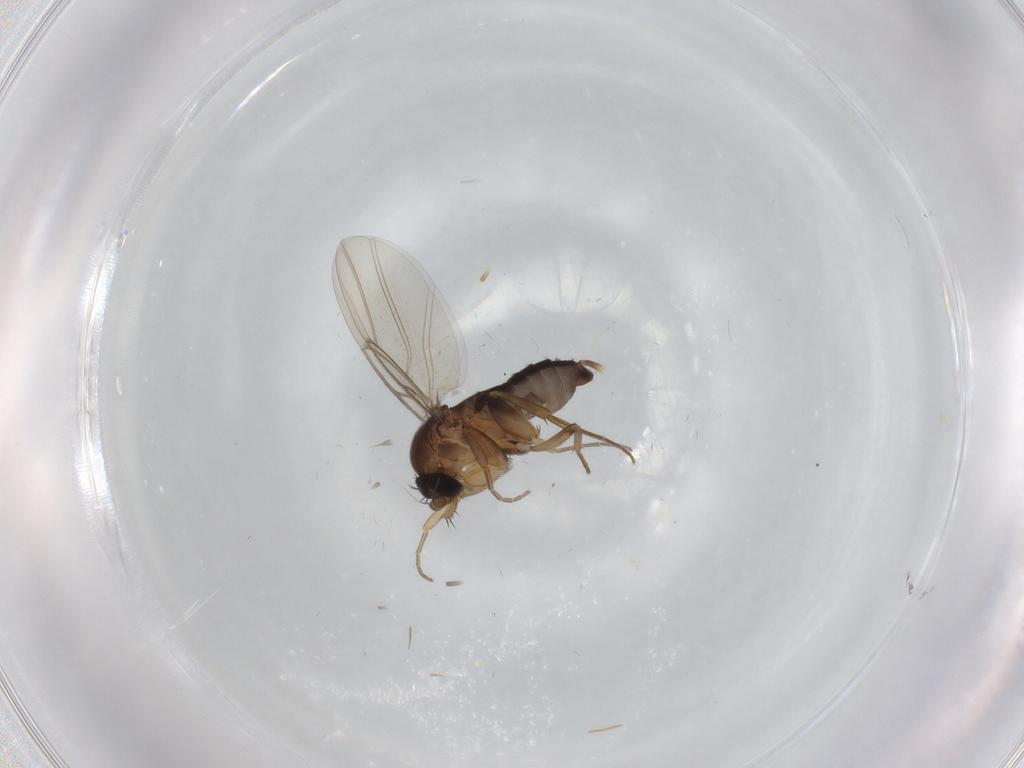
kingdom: Animalia
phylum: Arthropoda
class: Insecta
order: Diptera
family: Phoridae
